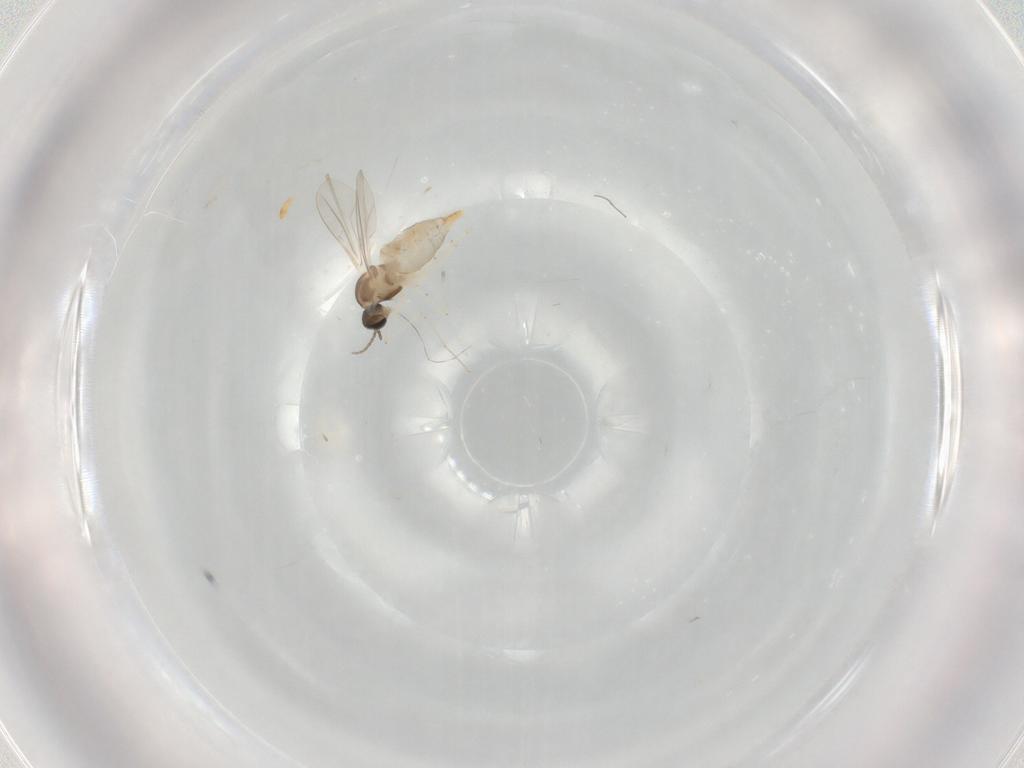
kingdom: Animalia
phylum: Arthropoda
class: Insecta
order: Diptera
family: Cecidomyiidae
